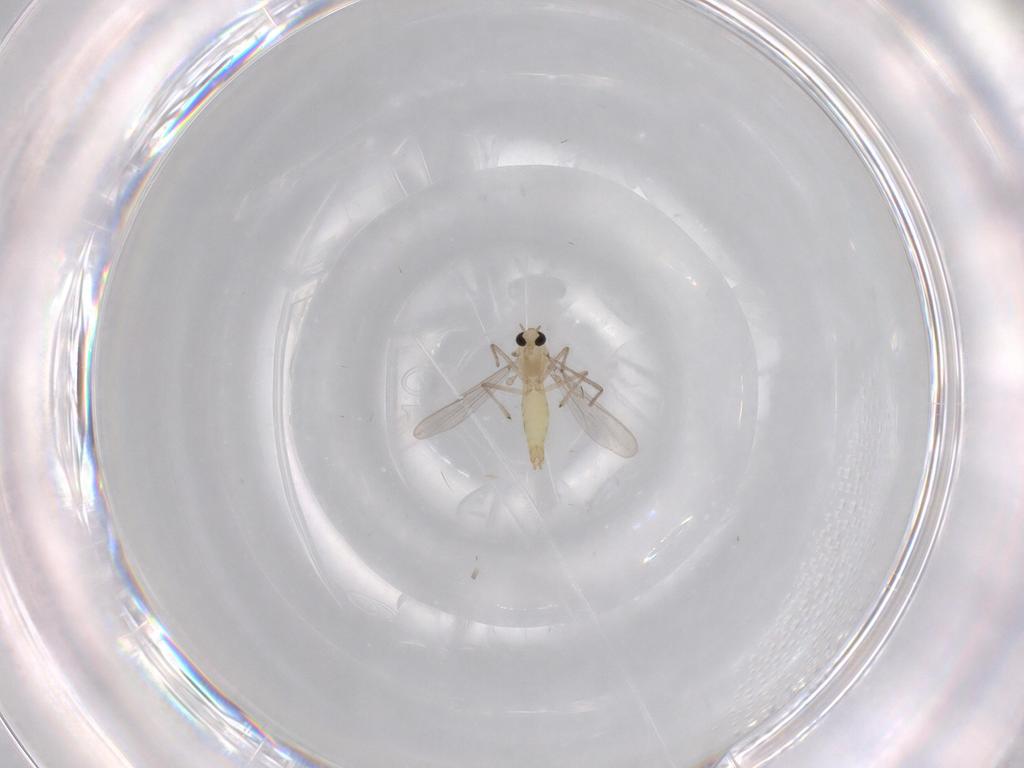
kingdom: Animalia
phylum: Arthropoda
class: Insecta
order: Diptera
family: Chironomidae
